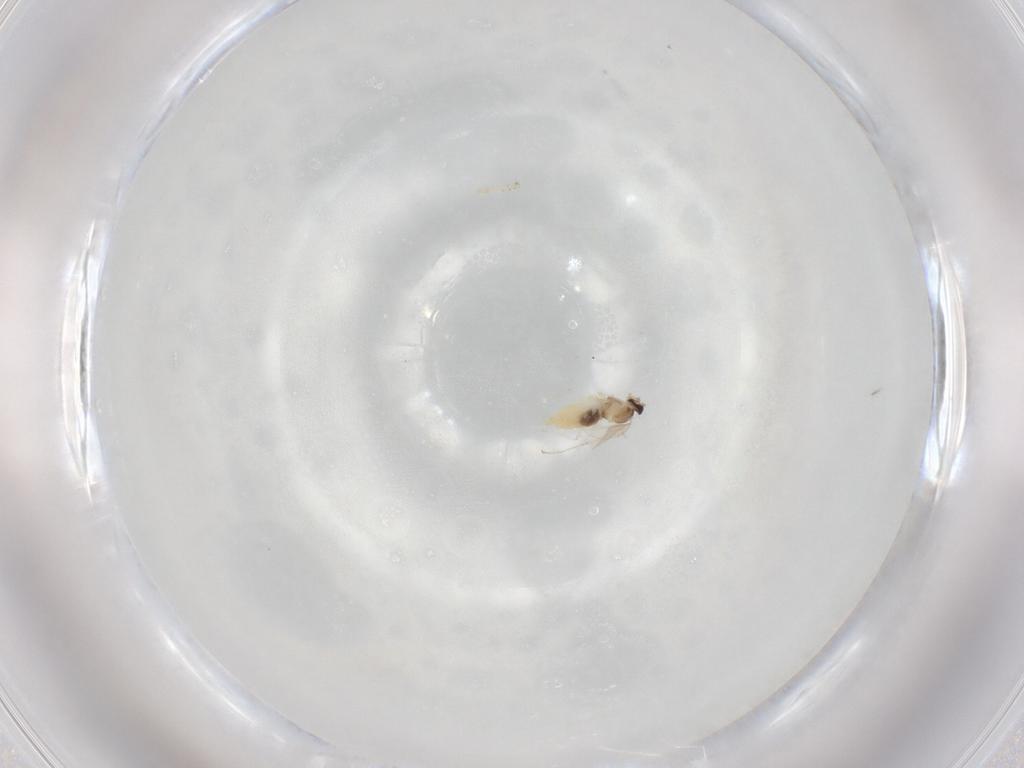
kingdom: Animalia
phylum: Arthropoda
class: Insecta
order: Diptera
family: Cecidomyiidae
